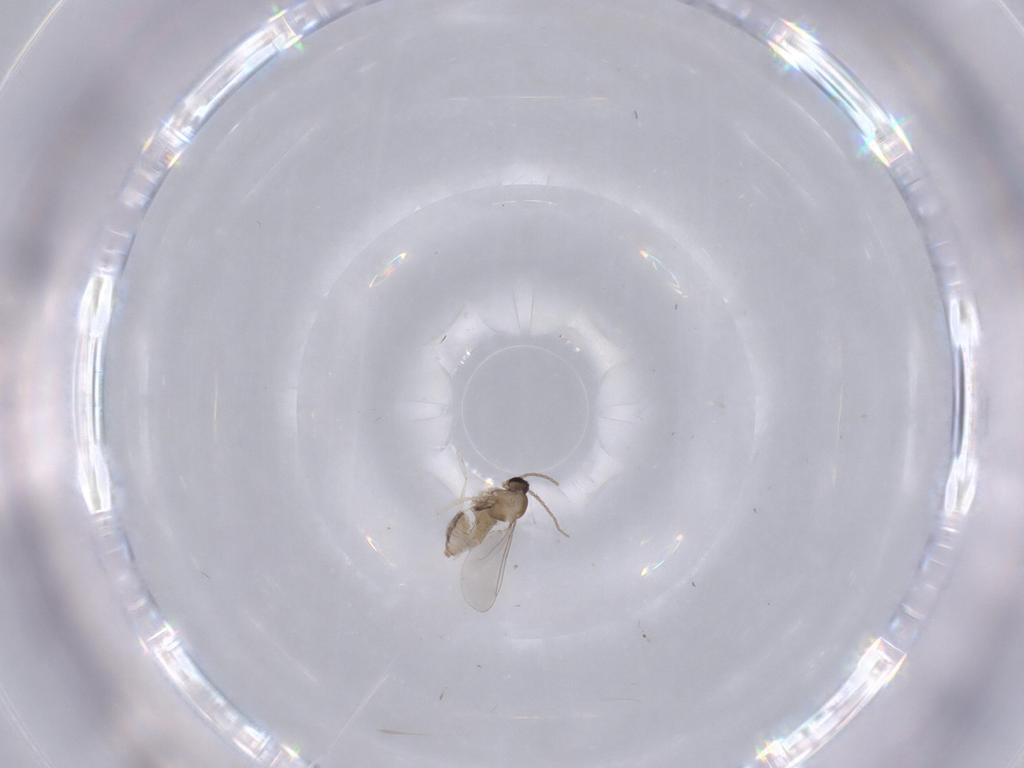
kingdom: Animalia
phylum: Arthropoda
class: Insecta
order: Diptera
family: Cecidomyiidae
